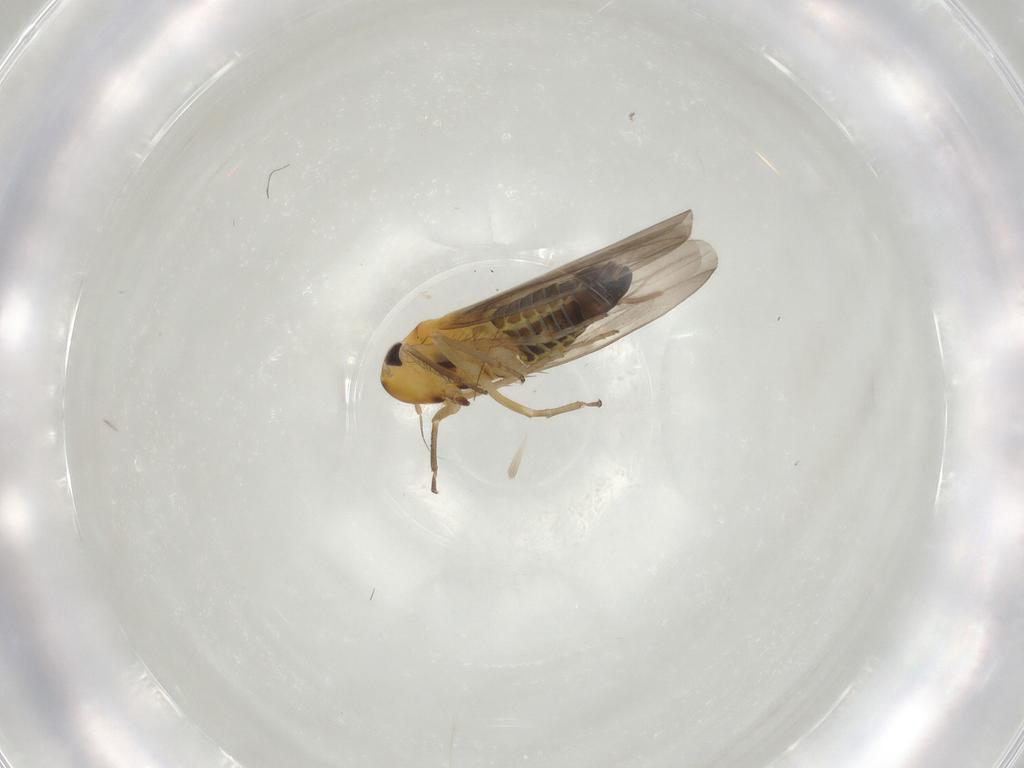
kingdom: Animalia
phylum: Arthropoda
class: Insecta
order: Hemiptera
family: Cicadellidae
